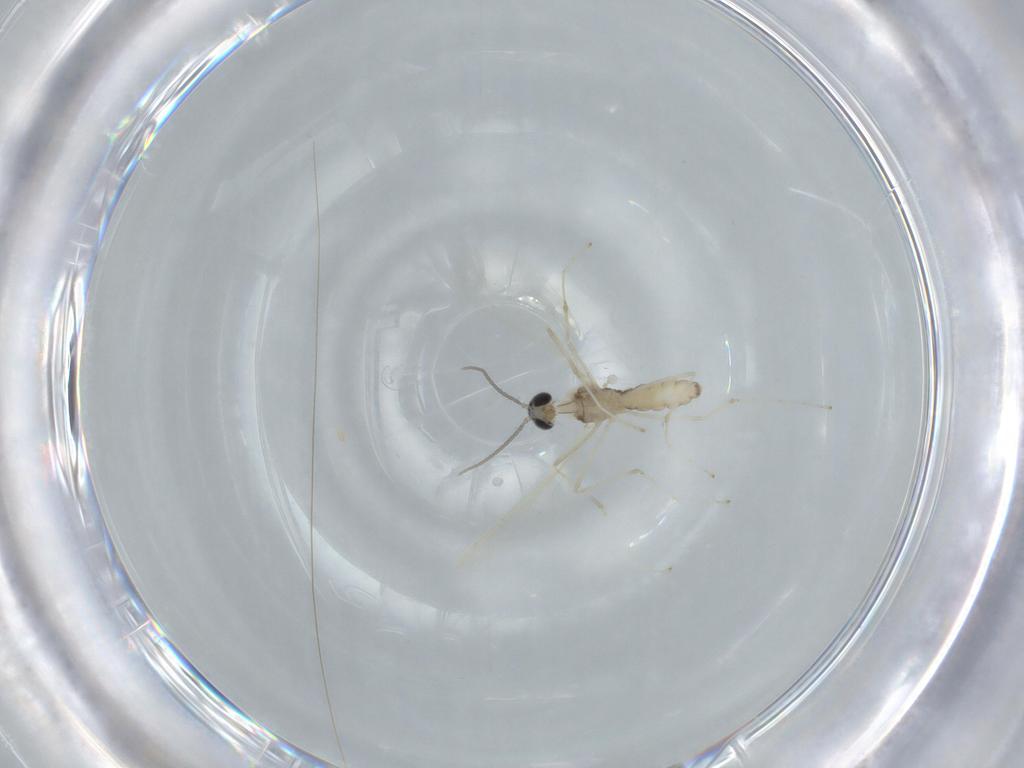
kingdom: Animalia
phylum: Arthropoda
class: Insecta
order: Diptera
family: Cecidomyiidae
